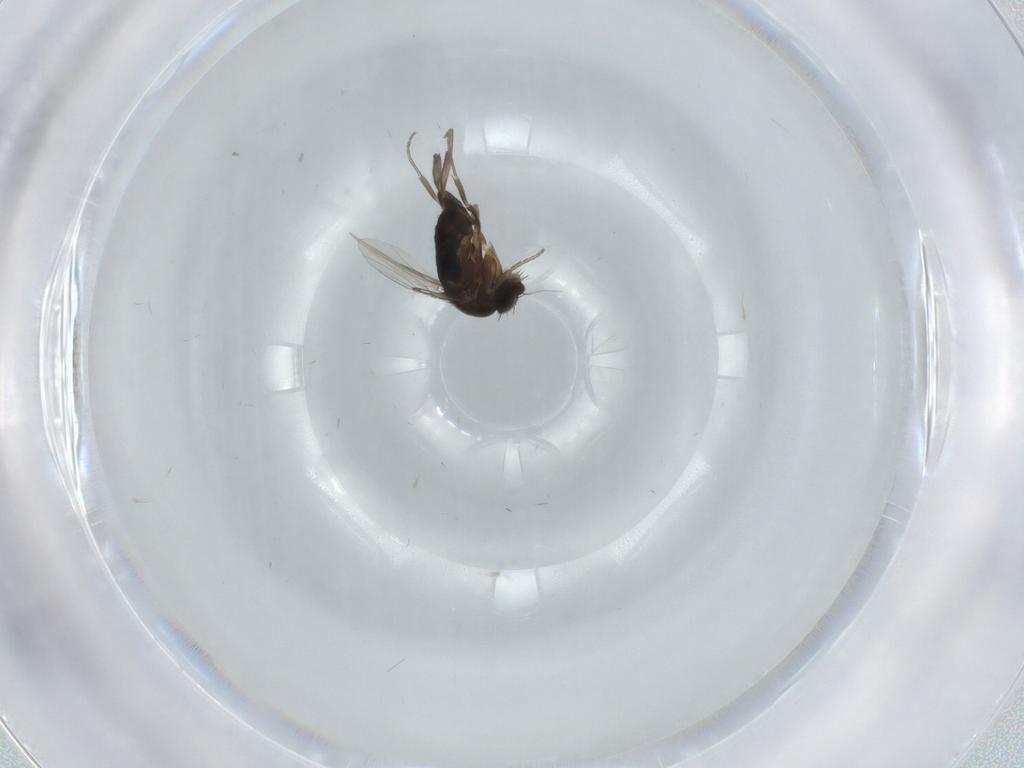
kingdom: Animalia
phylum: Arthropoda
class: Insecta
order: Diptera
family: Phoridae
